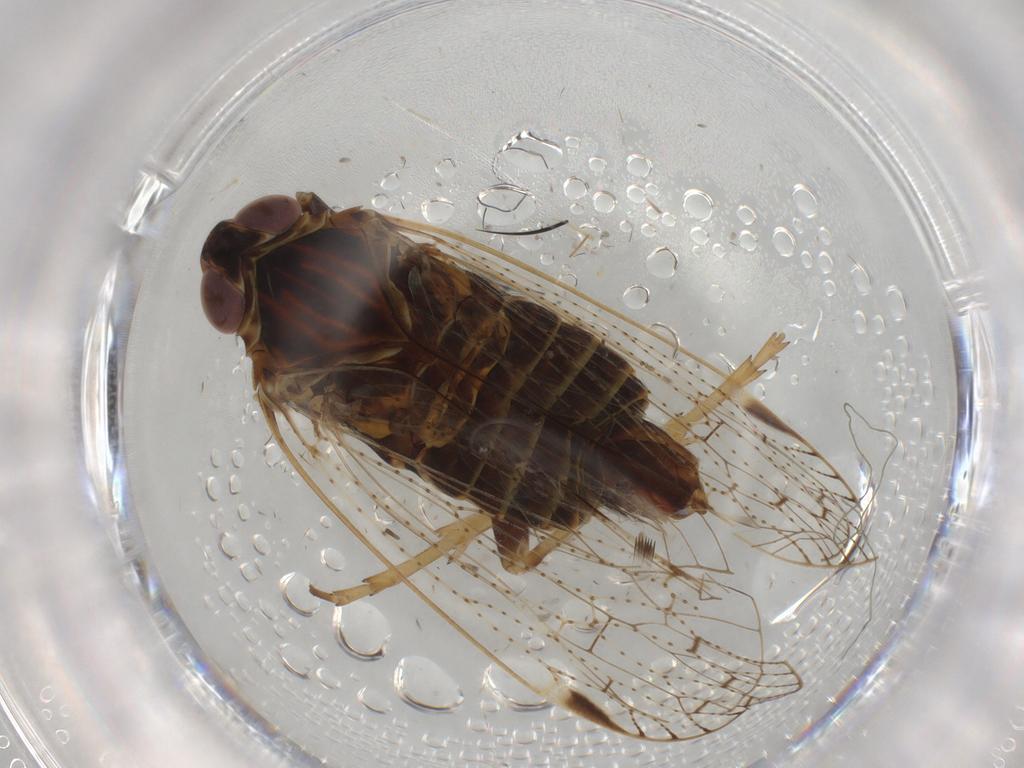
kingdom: Animalia
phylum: Arthropoda
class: Insecta
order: Hemiptera
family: Cixiidae
